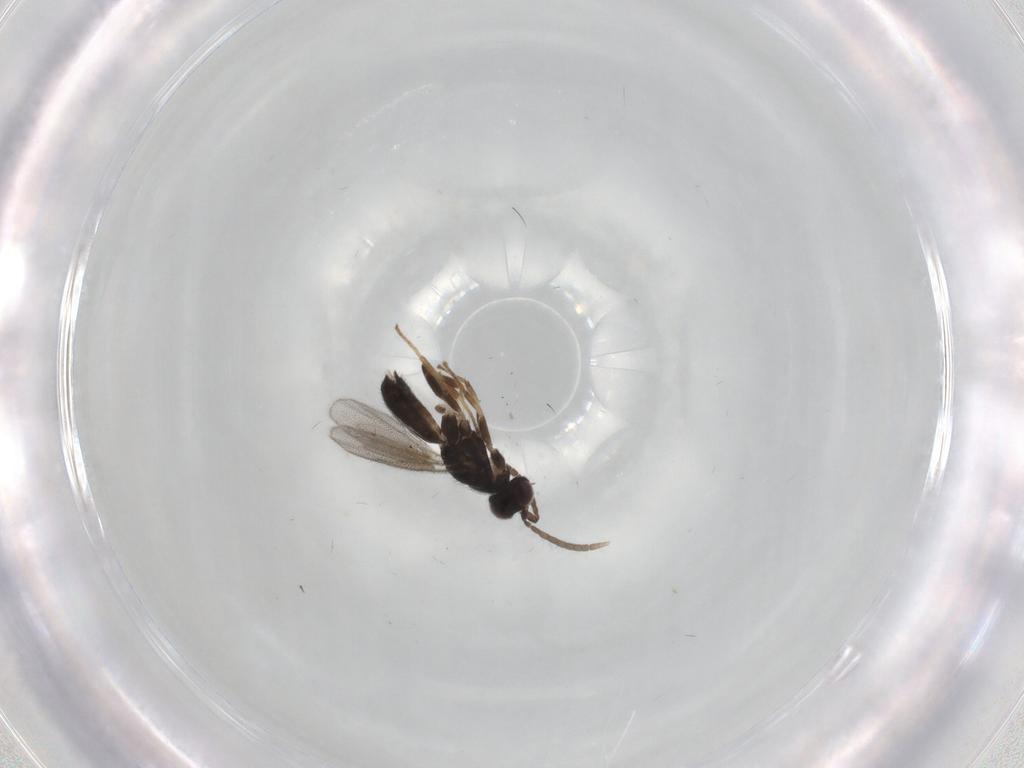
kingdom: Animalia
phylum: Arthropoda
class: Insecta
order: Hymenoptera
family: Eupelmidae
